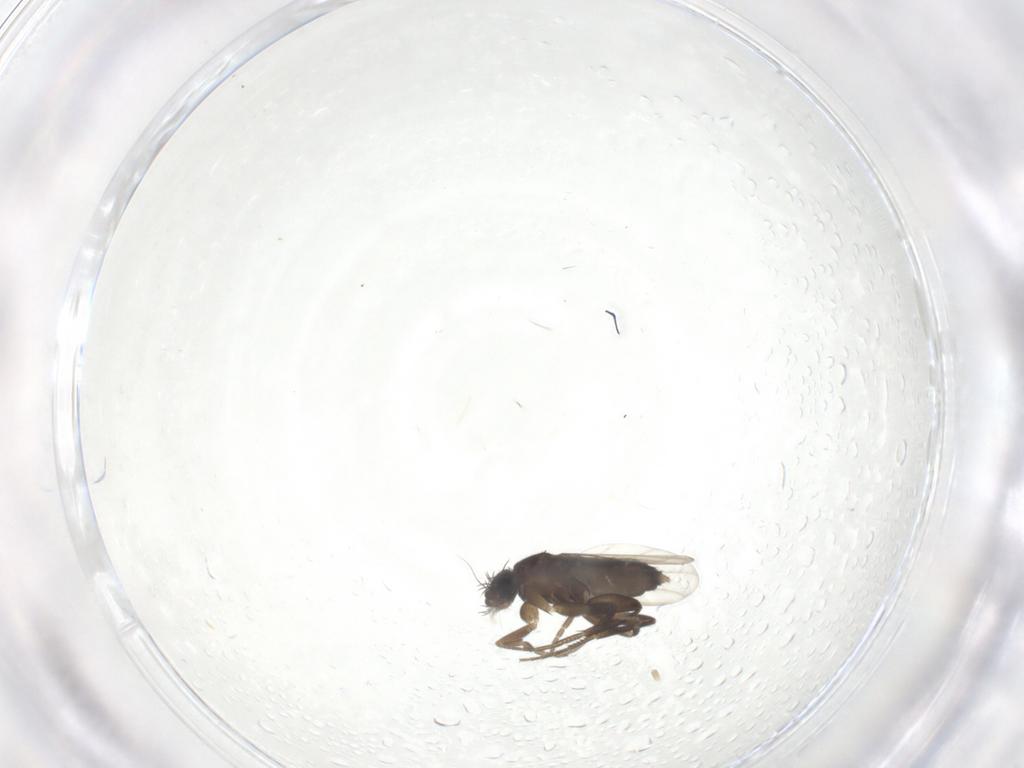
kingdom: Animalia
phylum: Arthropoda
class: Insecta
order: Diptera
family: Phoridae
